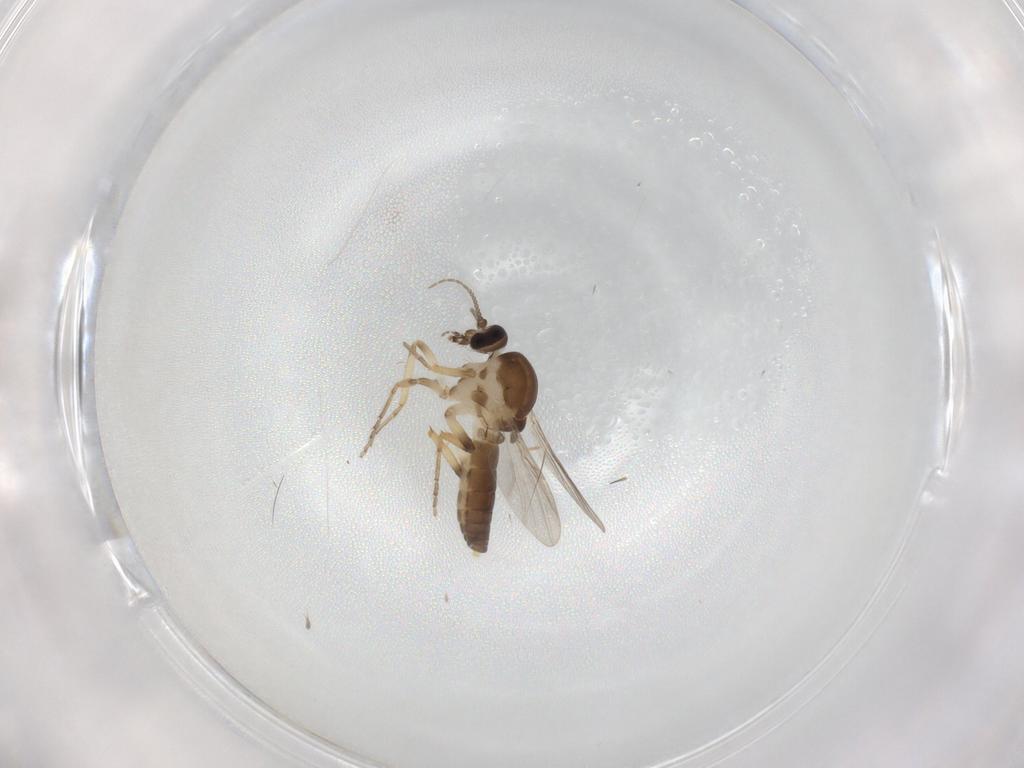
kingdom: Animalia
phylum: Arthropoda
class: Insecta
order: Diptera
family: Ceratopogonidae
